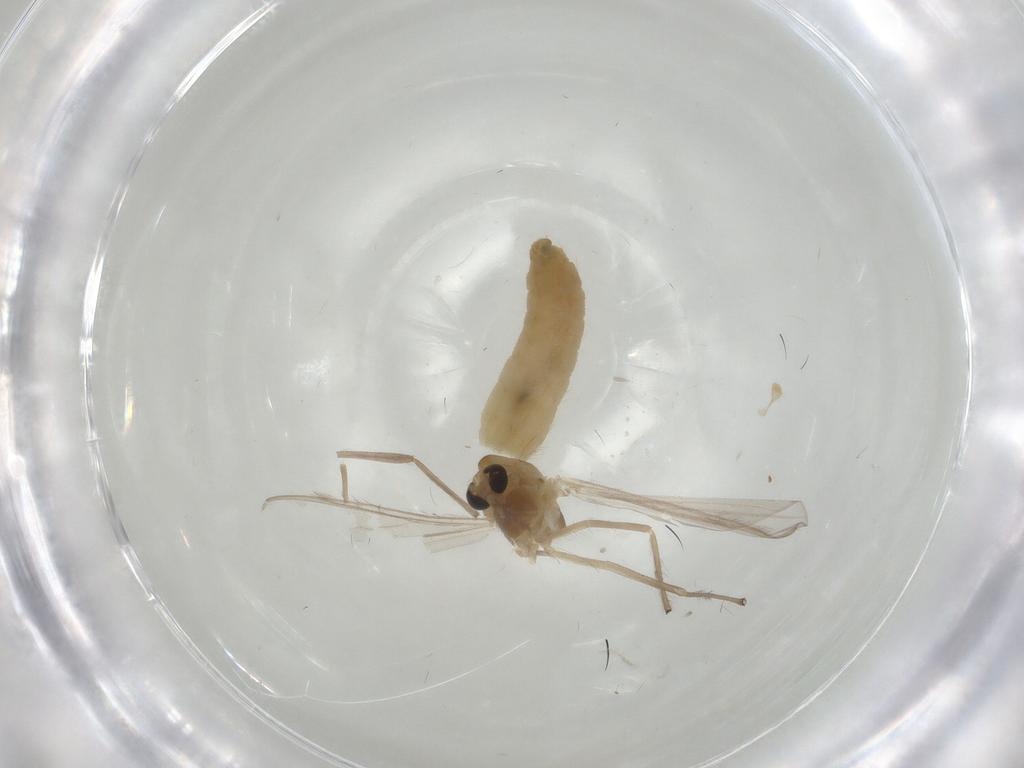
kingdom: Animalia
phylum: Arthropoda
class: Insecta
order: Diptera
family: Chironomidae
